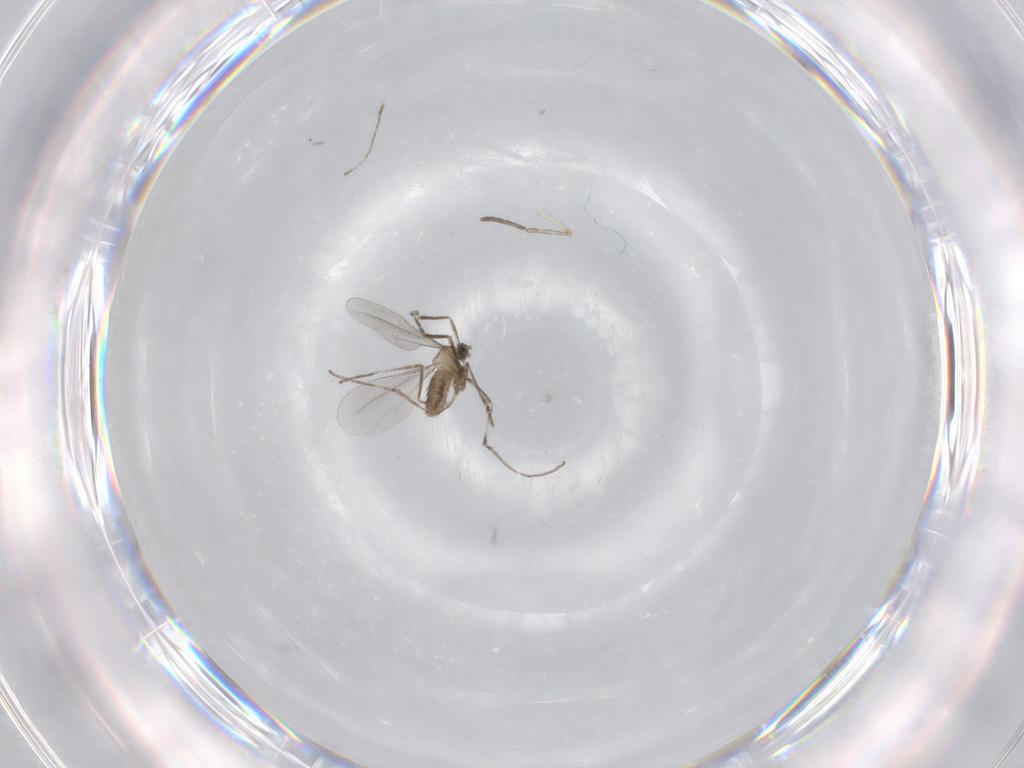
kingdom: Animalia
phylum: Arthropoda
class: Insecta
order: Diptera
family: Cecidomyiidae
